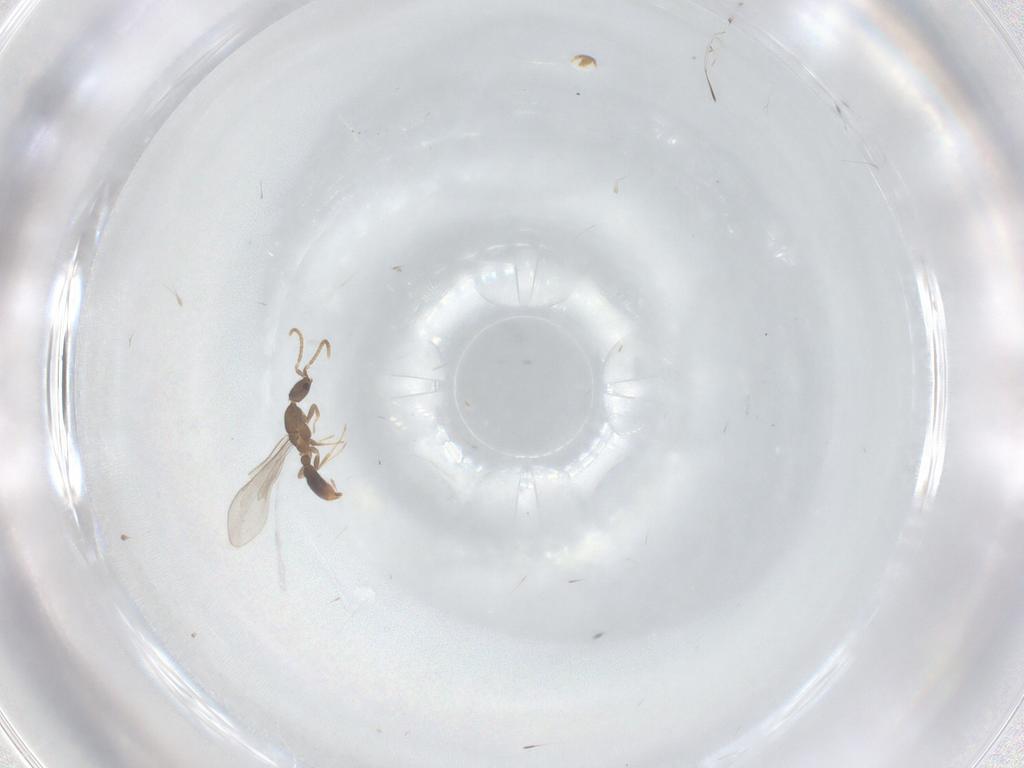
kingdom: Animalia
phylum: Arthropoda
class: Insecta
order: Hymenoptera
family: Formicidae
